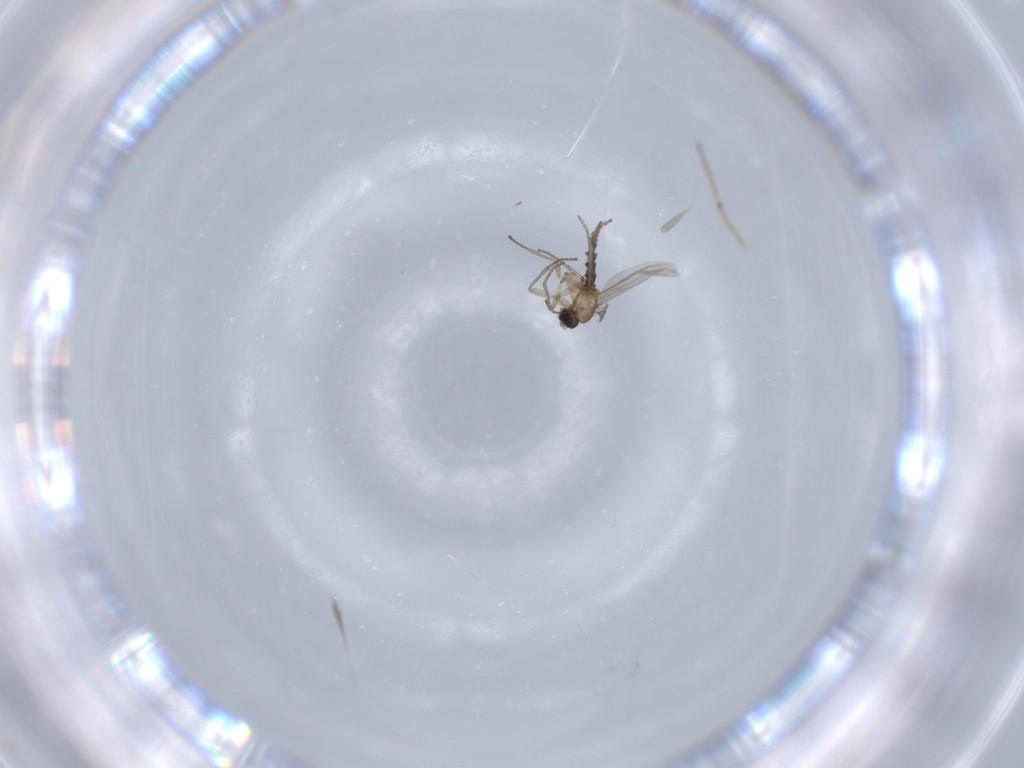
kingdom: Animalia
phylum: Arthropoda
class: Insecta
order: Diptera
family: Sciaridae
